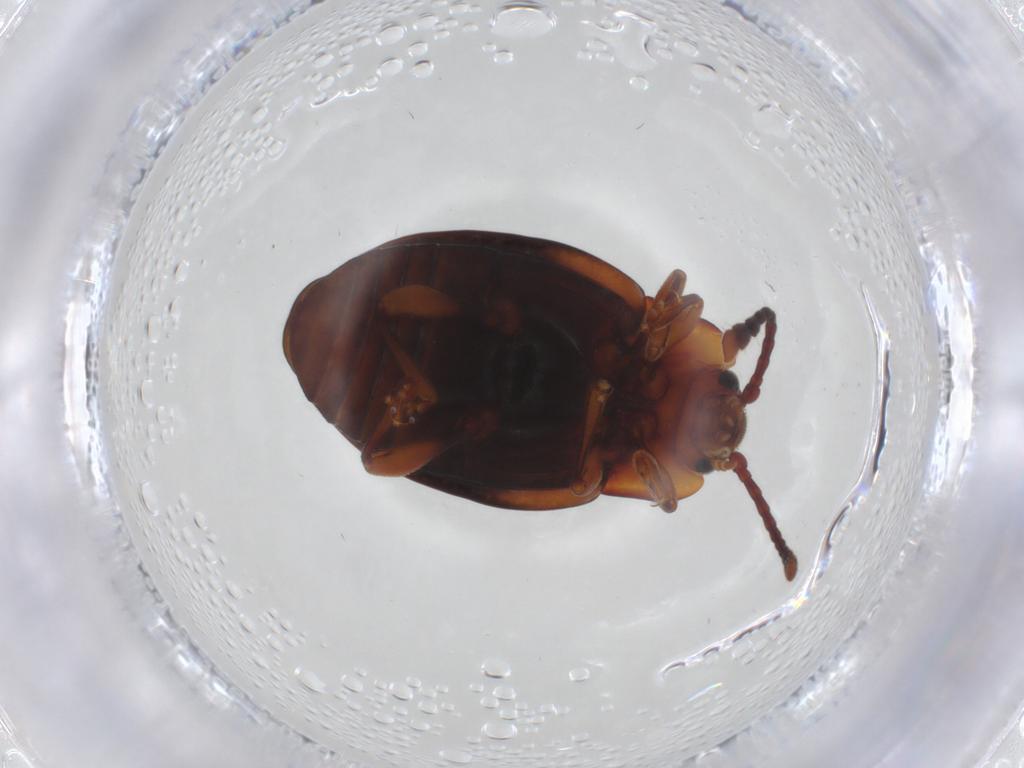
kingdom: Animalia
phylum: Arthropoda
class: Insecta
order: Coleoptera
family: Endomychidae
